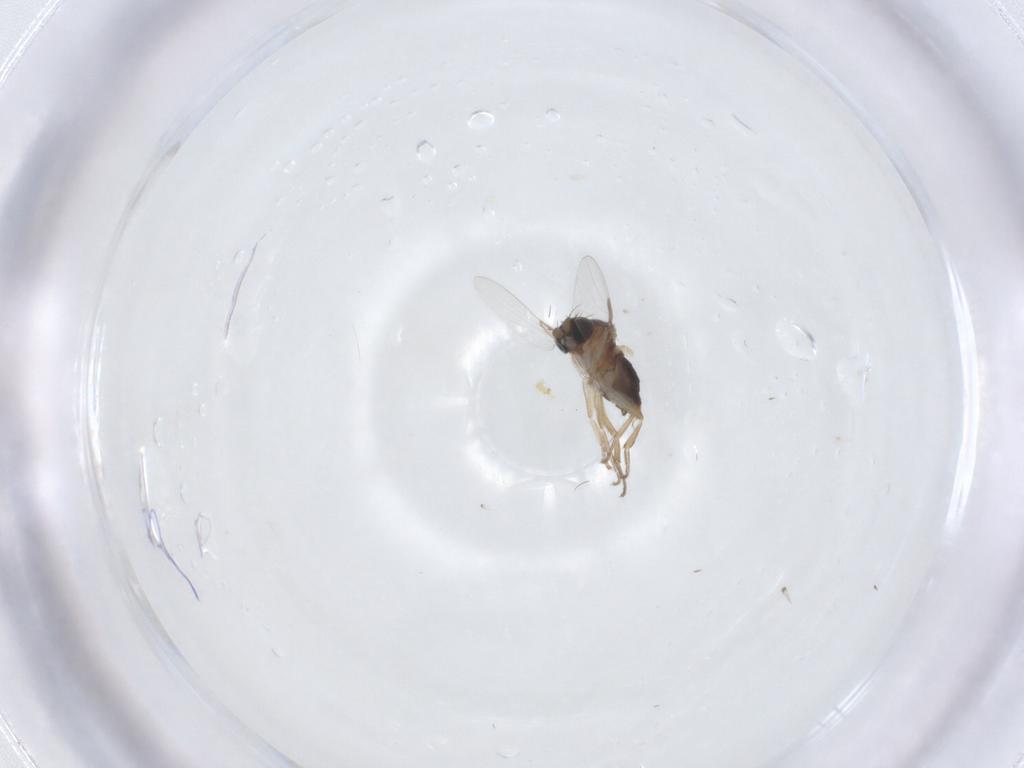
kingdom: Animalia
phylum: Arthropoda
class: Insecta
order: Diptera
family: Phoridae
